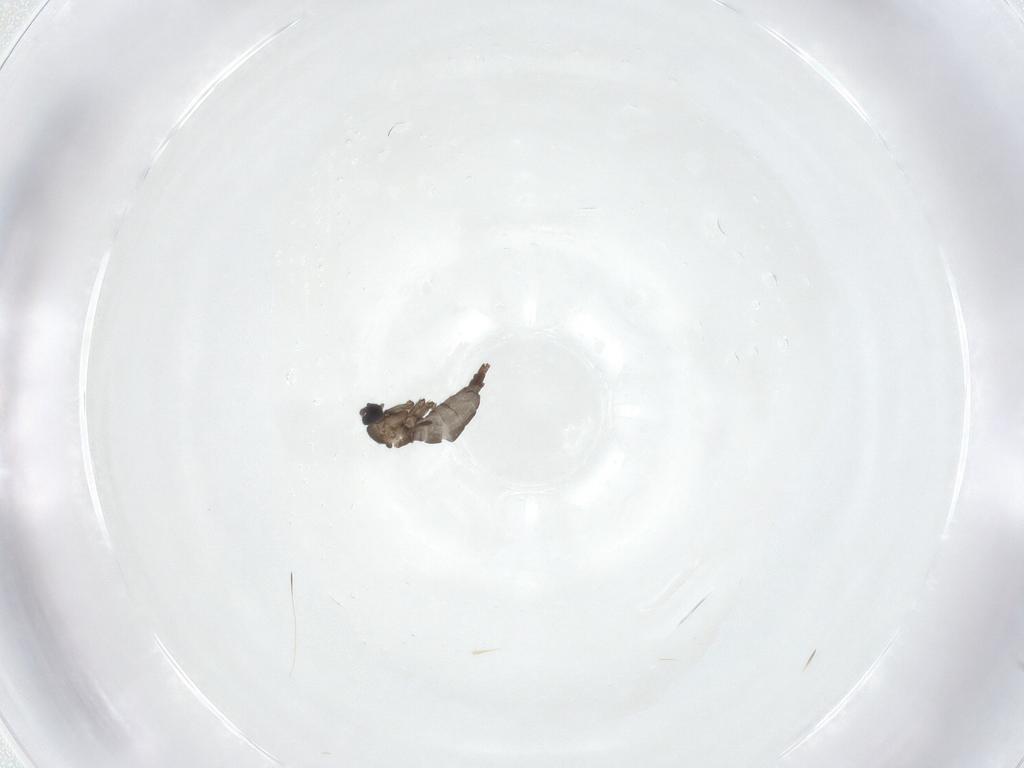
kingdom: Animalia
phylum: Arthropoda
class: Insecta
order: Diptera
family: Sciaridae
